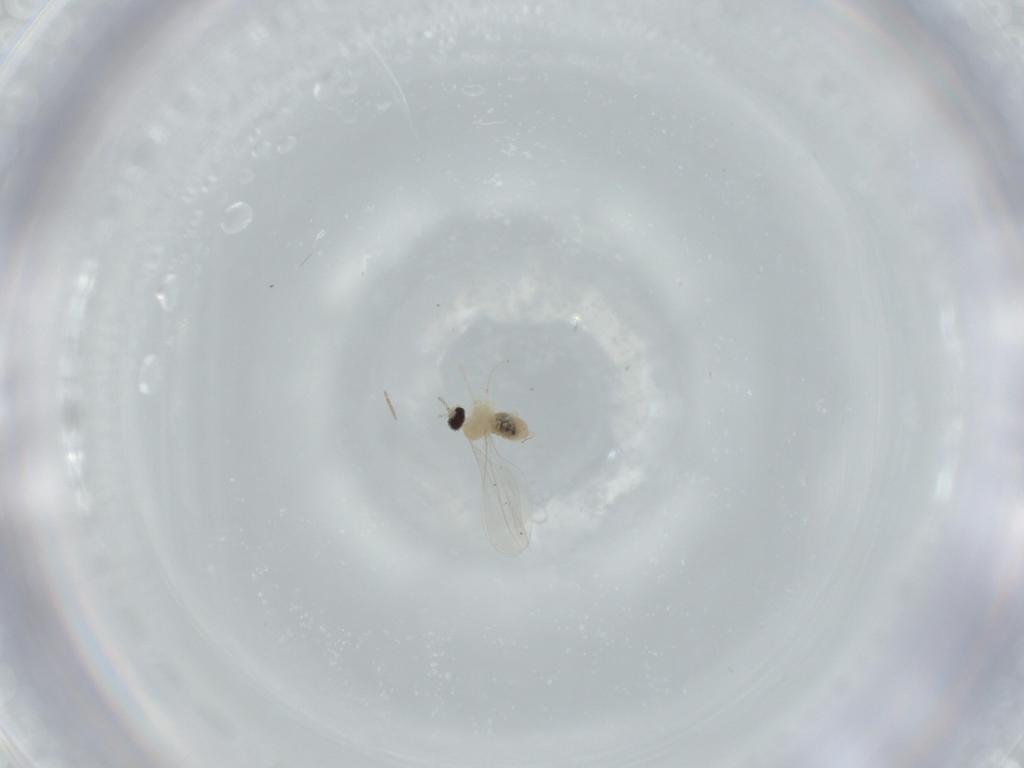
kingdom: Animalia
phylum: Arthropoda
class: Insecta
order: Diptera
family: Chironomidae
